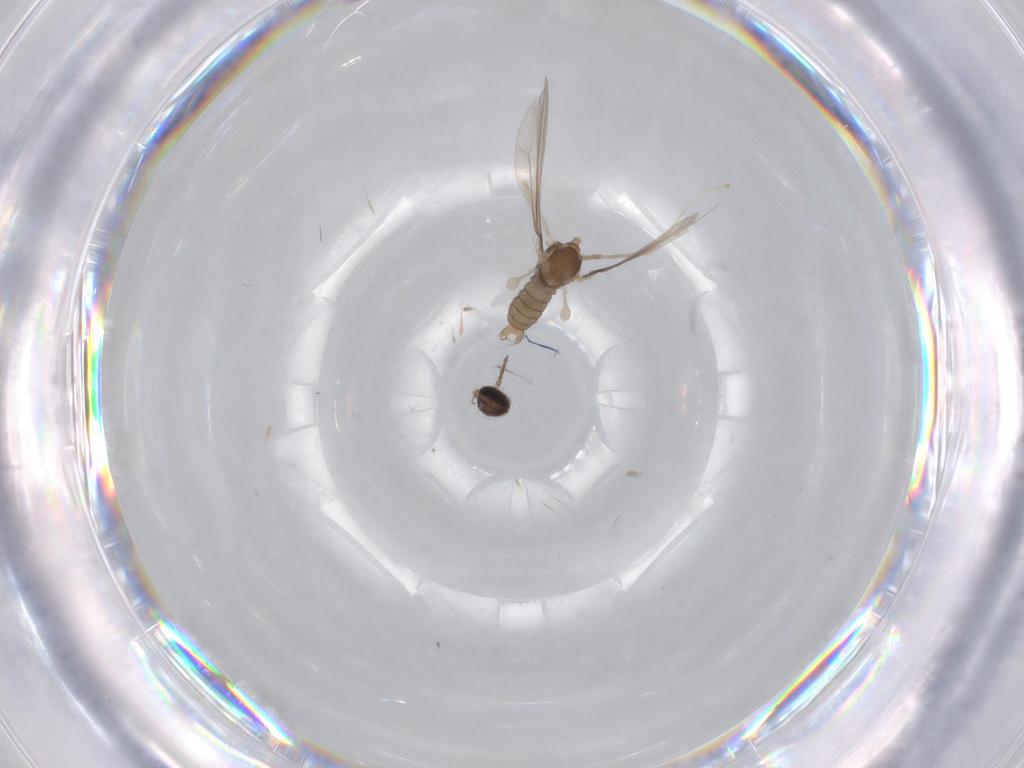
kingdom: Animalia
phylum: Arthropoda
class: Insecta
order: Diptera
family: Cecidomyiidae
